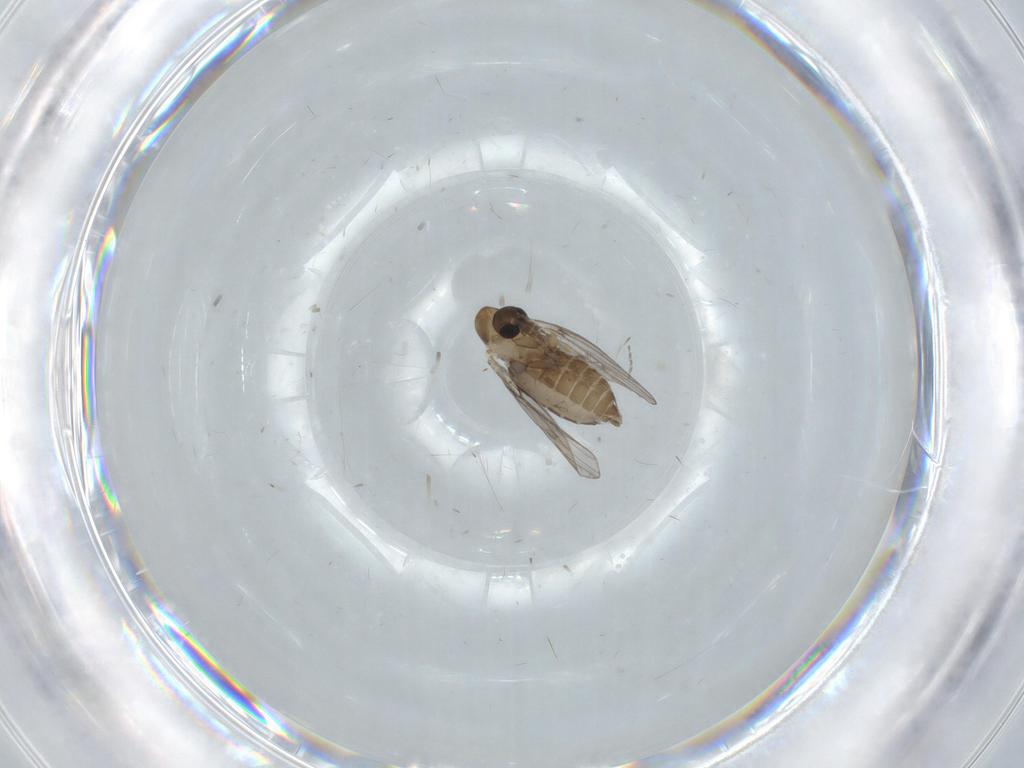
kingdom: Animalia
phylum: Arthropoda
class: Insecta
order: Diptera
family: Psychodidae
